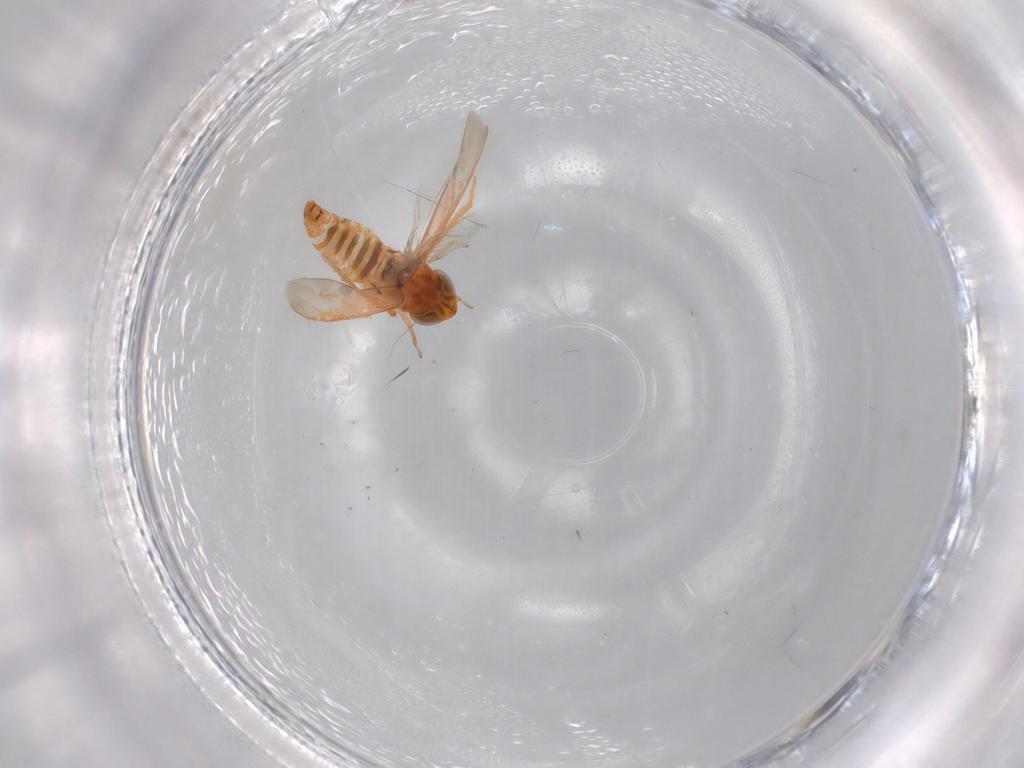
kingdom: Animalia
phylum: Arthropoda
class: Insecta
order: Hemiptera
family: Cicadellidae
